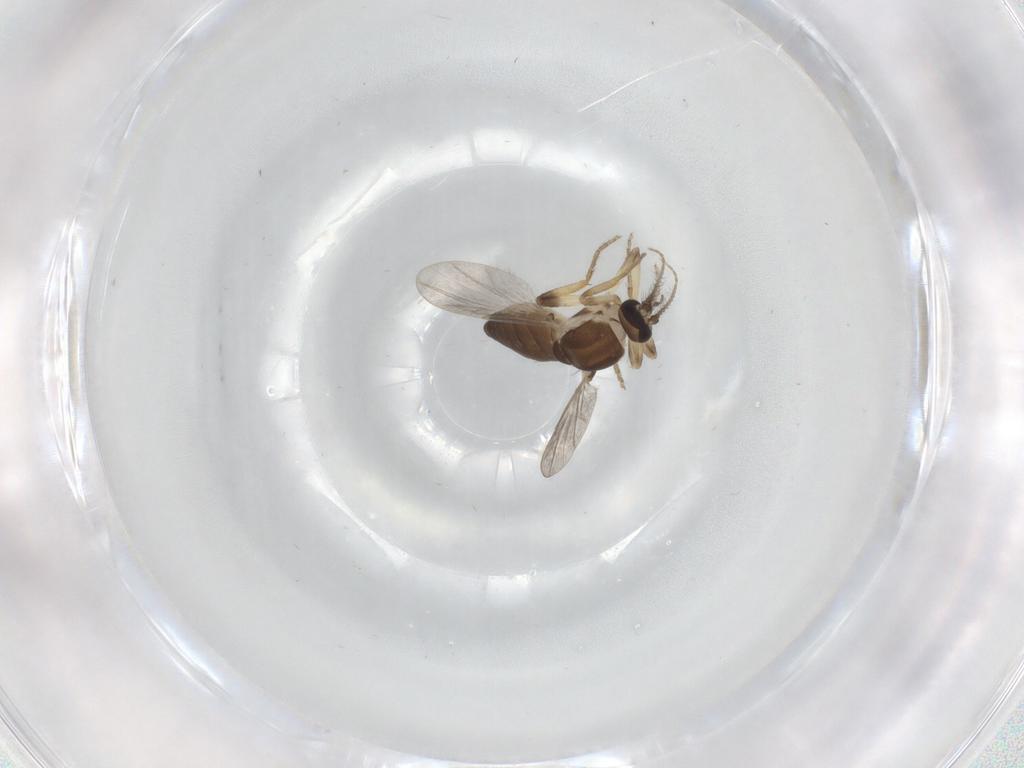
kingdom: Animalia
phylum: Arthropoda
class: Insecta
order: Diptera
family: Ceratopogonidae
